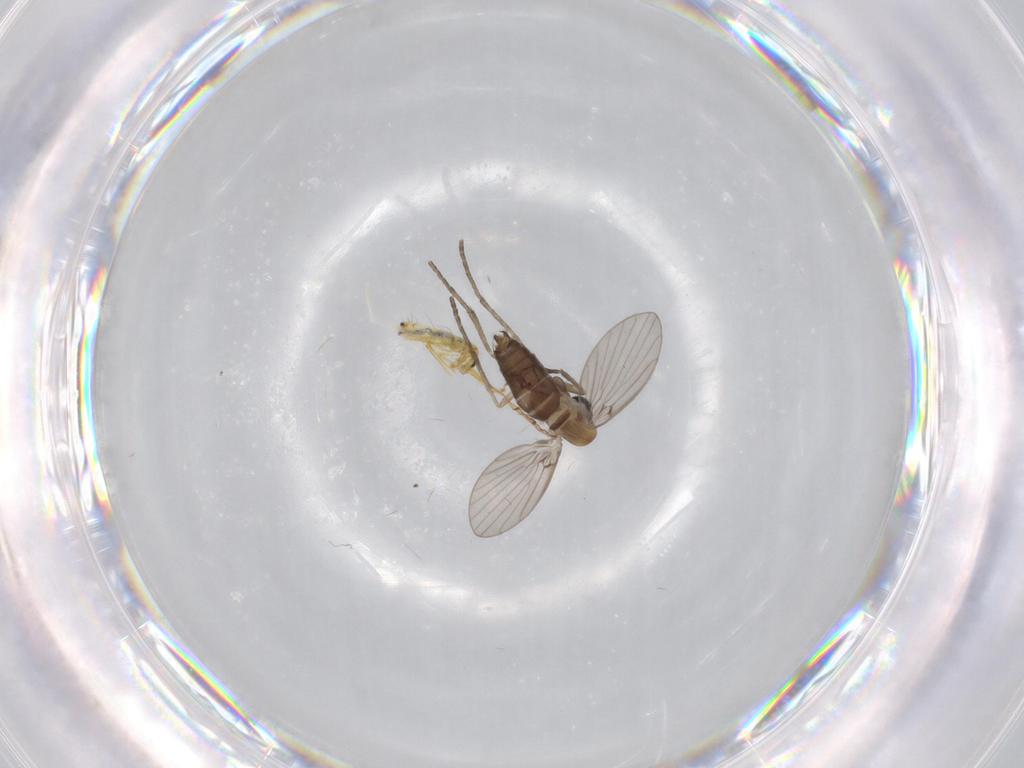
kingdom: Animalia
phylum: Arthropoda
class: Insecta
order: Diptera
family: Psychodidae
